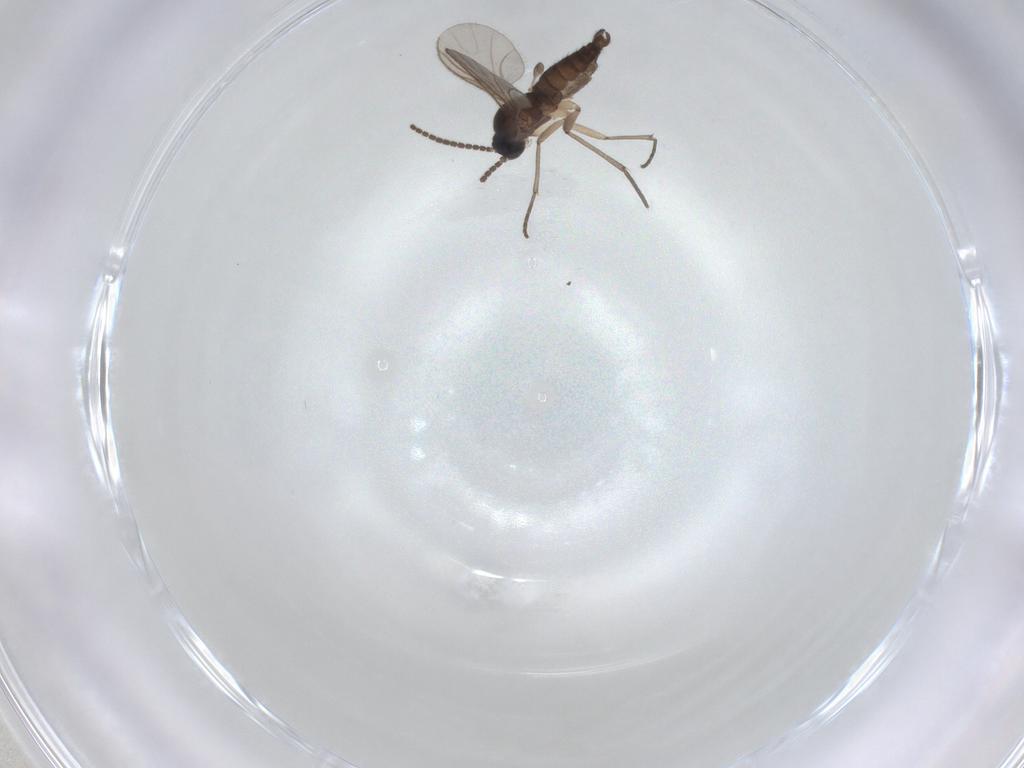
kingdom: Animalia
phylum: Arthropoda
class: Insecta
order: Diptera
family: Sciaridae
